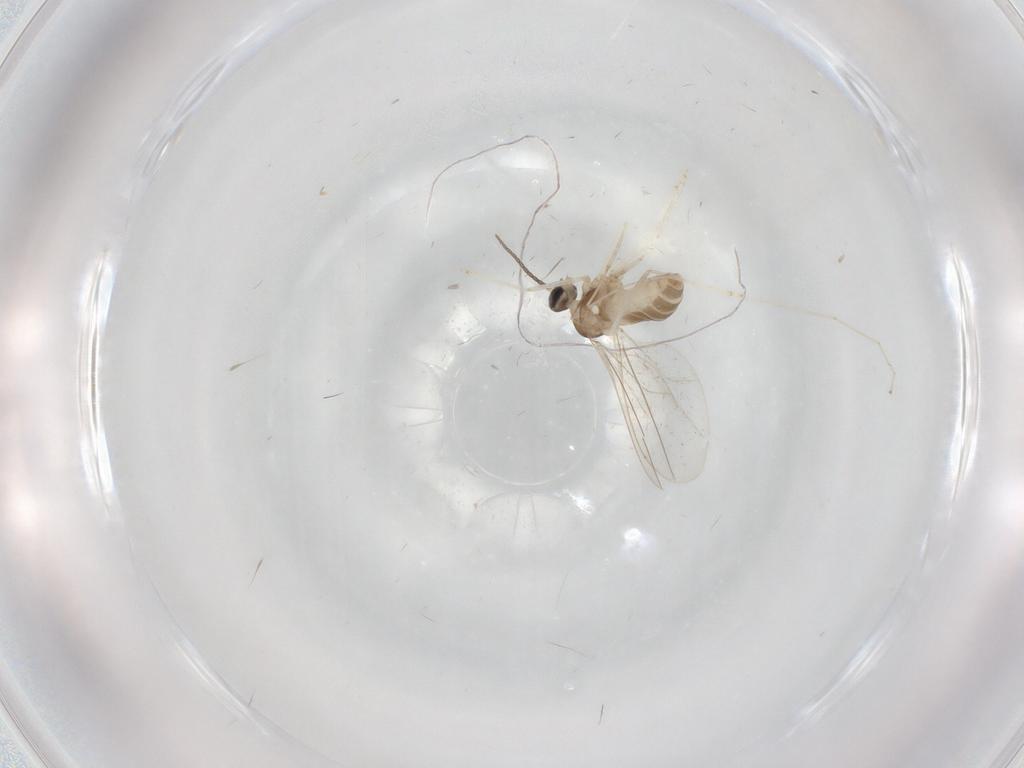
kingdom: Animalia
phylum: Arthropoda
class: Insecta
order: Diptera
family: Cecidomyiidae
